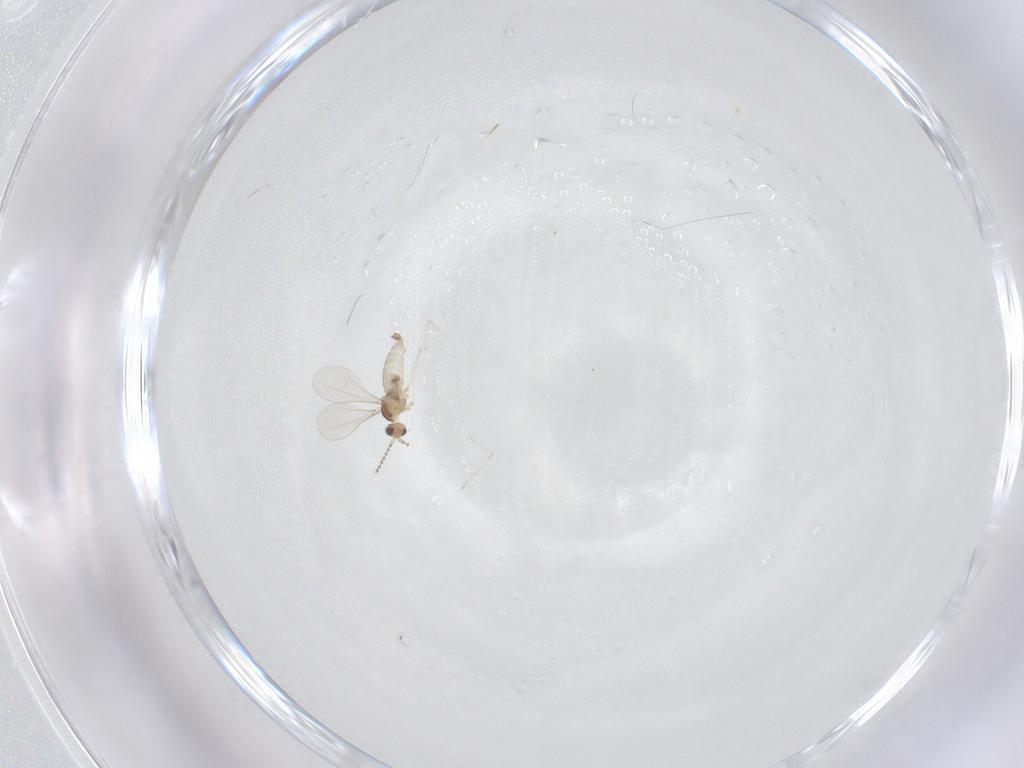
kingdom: Animalia
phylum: Arthropoda
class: Insecta
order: Diptera
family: Cecidomyiidae
